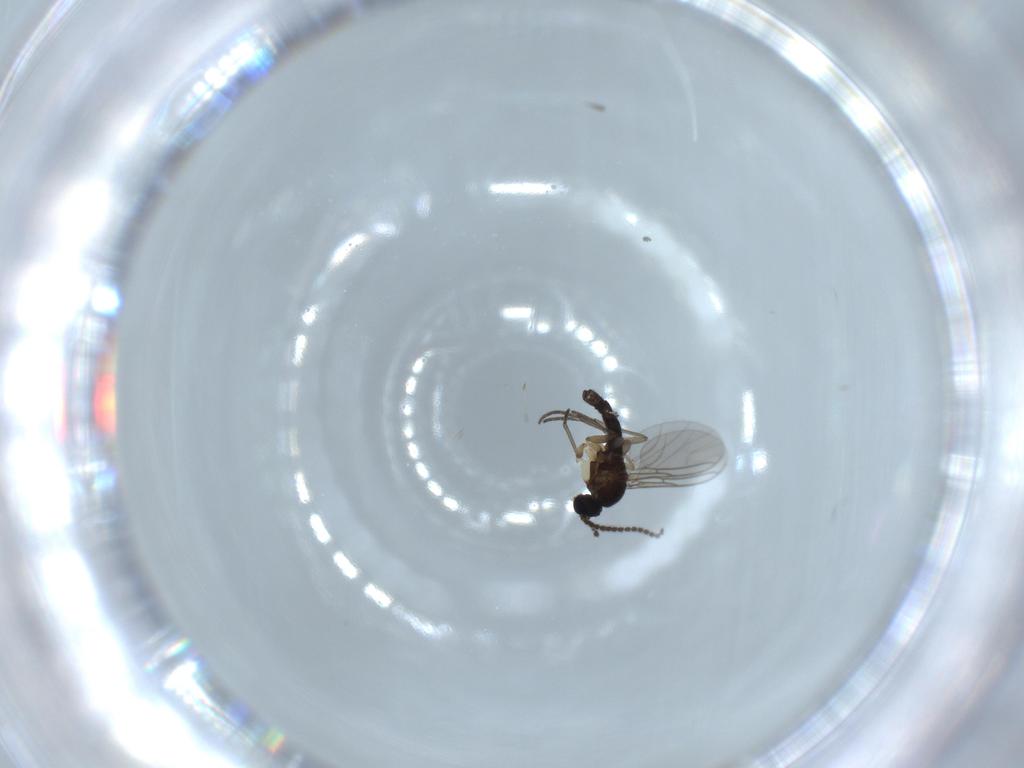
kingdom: Animalia
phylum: Arthropoda
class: Insecta
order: Diptera
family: Sciaridae
